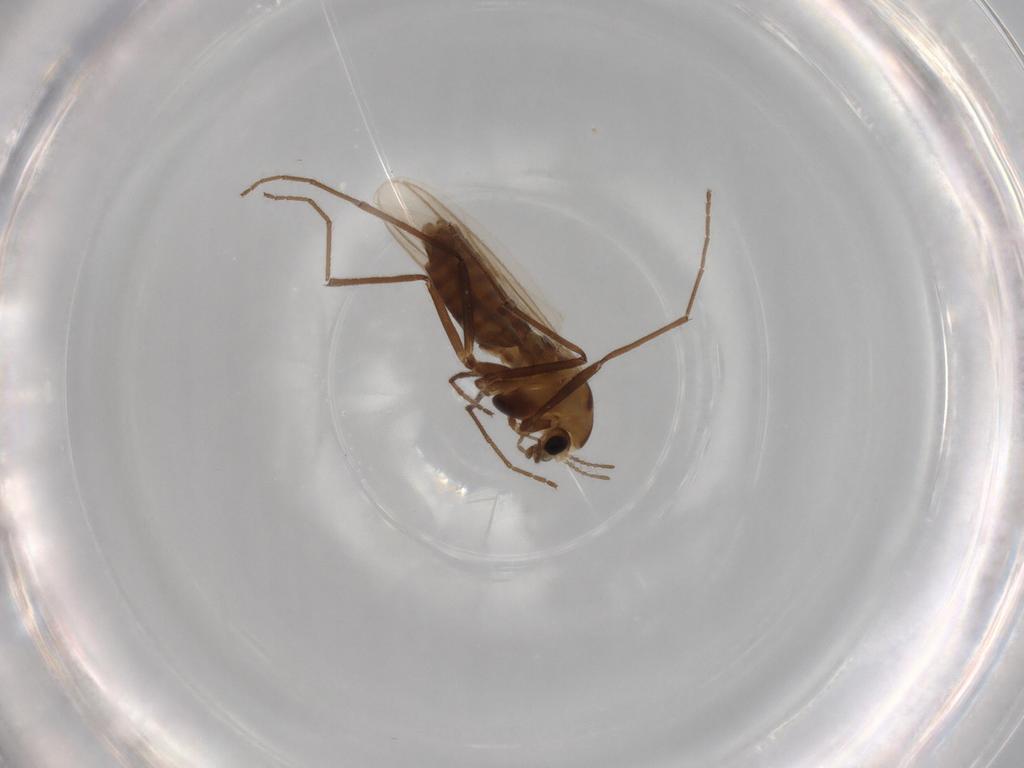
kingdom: Animalia
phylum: Arthropoda
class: Insecta
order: Diptera
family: Chironomidae
